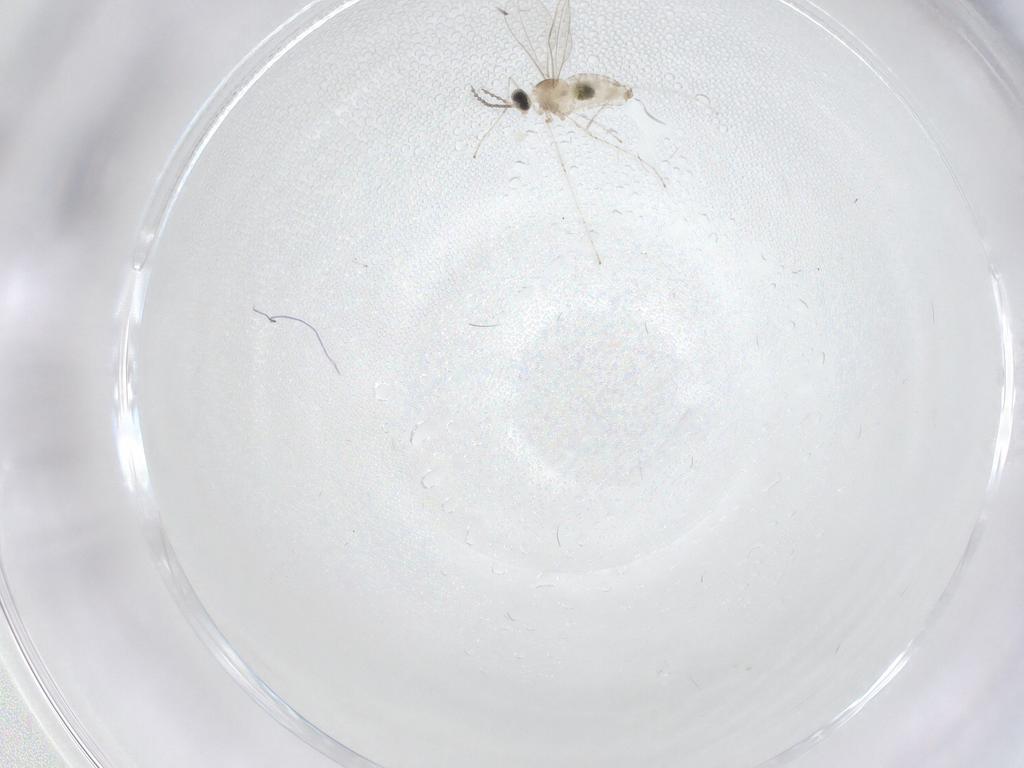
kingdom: Animalia
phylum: Arthropoda
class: Insecta
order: Diptera
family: Ceratopogonidae
